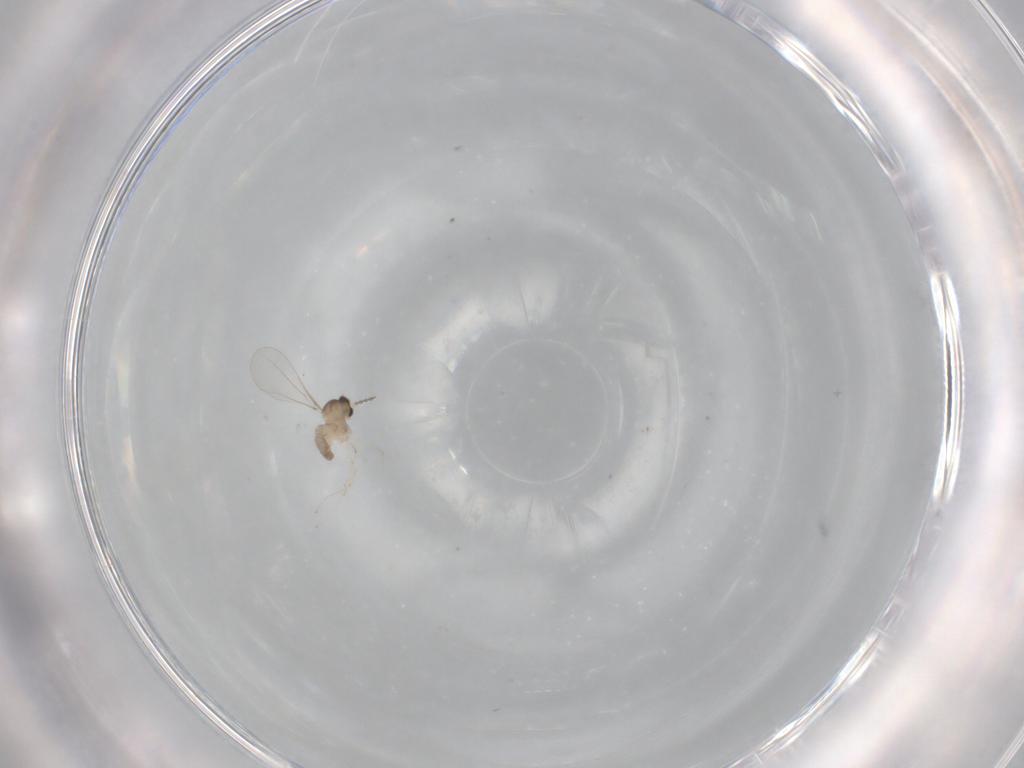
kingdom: Animalia
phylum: Arthropoda
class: Insecta
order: Diptera
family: Cecidomyiidae
